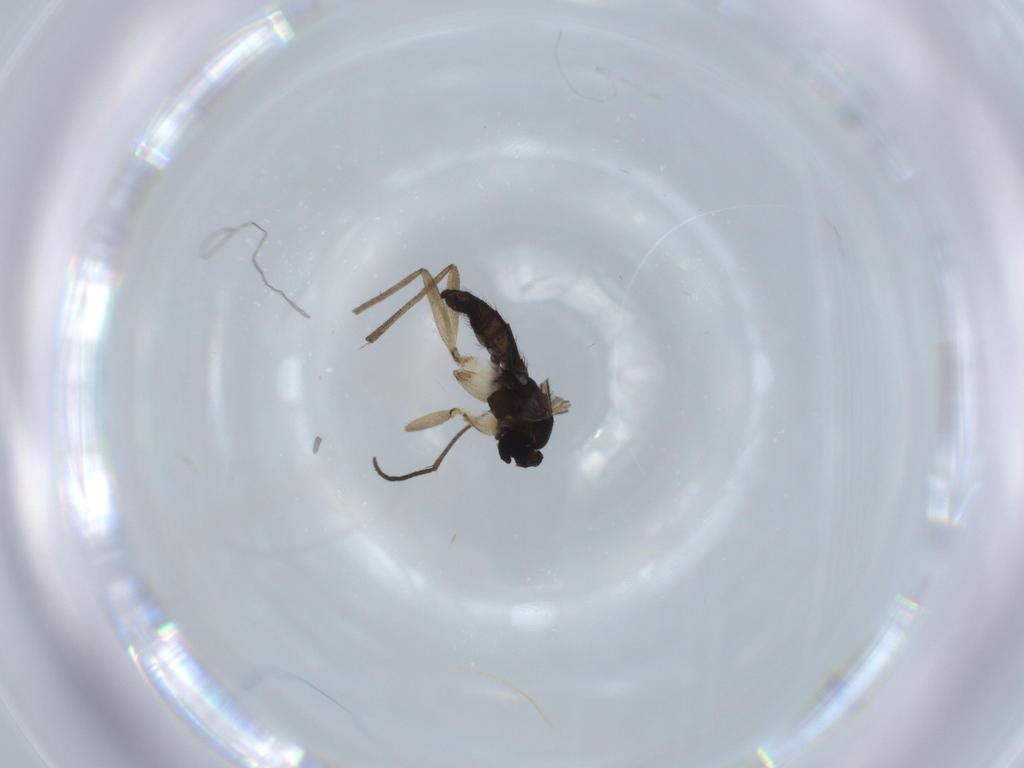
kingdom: Animalia
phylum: Arthropoda
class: Insecta
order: Diptera
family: Sciaridae
